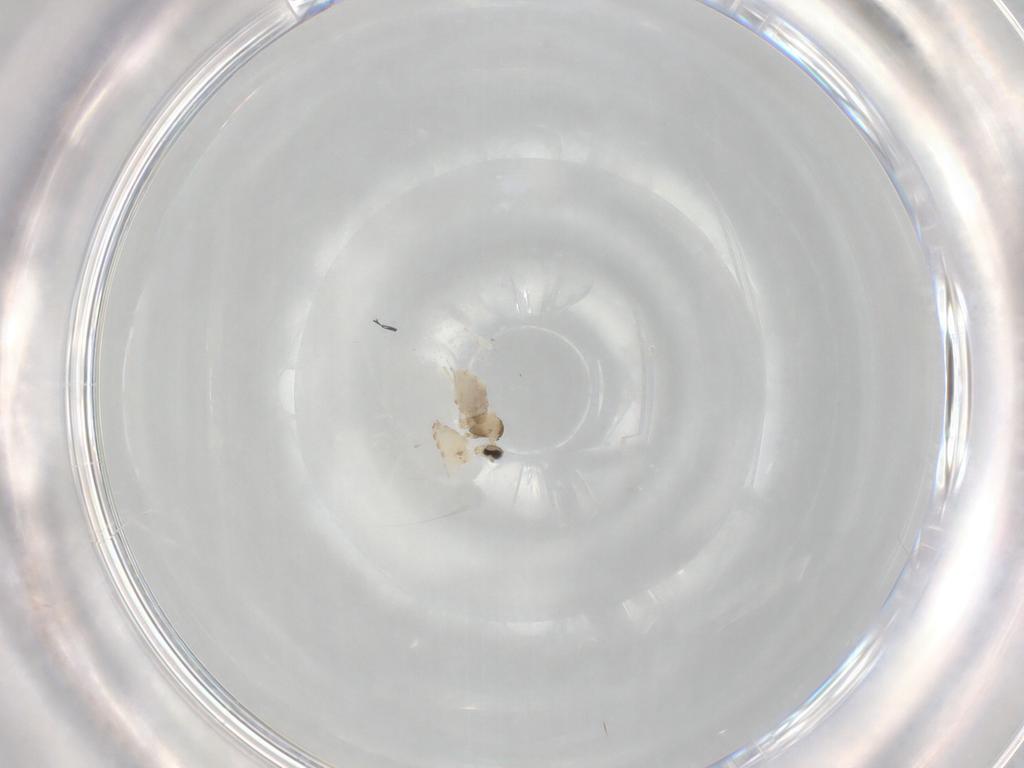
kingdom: Animalia
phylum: Arthropoda
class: Insecta
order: Diptera
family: Cecidomyiidae
